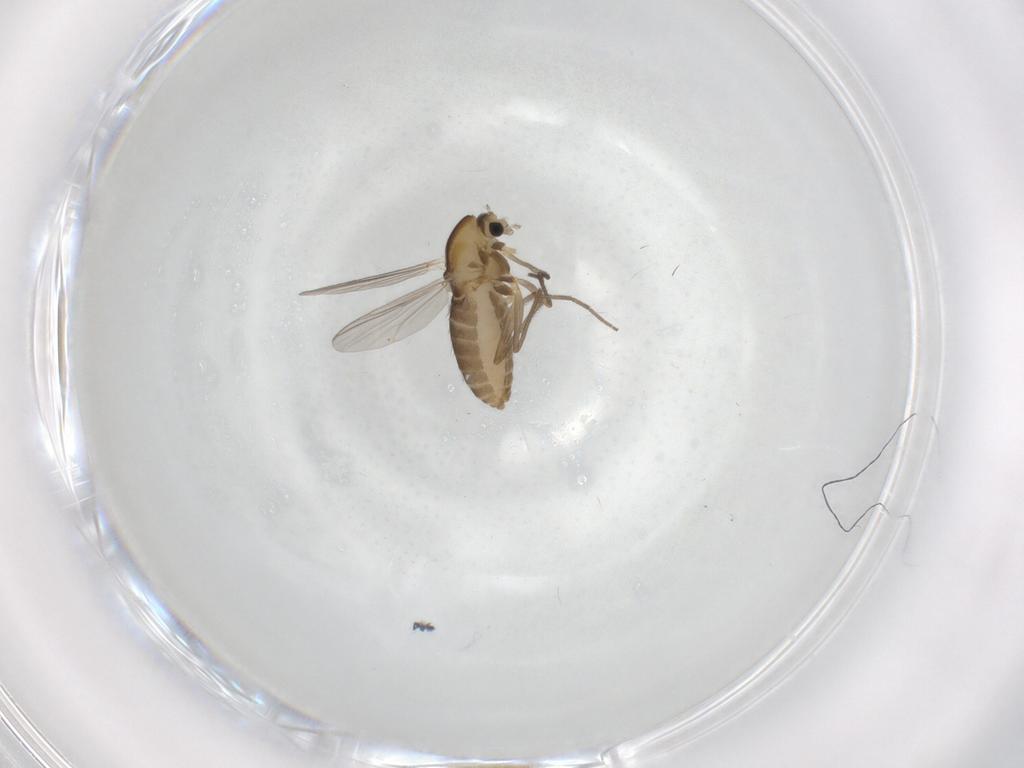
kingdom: Animalia
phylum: Arthropoda
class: Insecta
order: Diptera
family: Chironomidae
